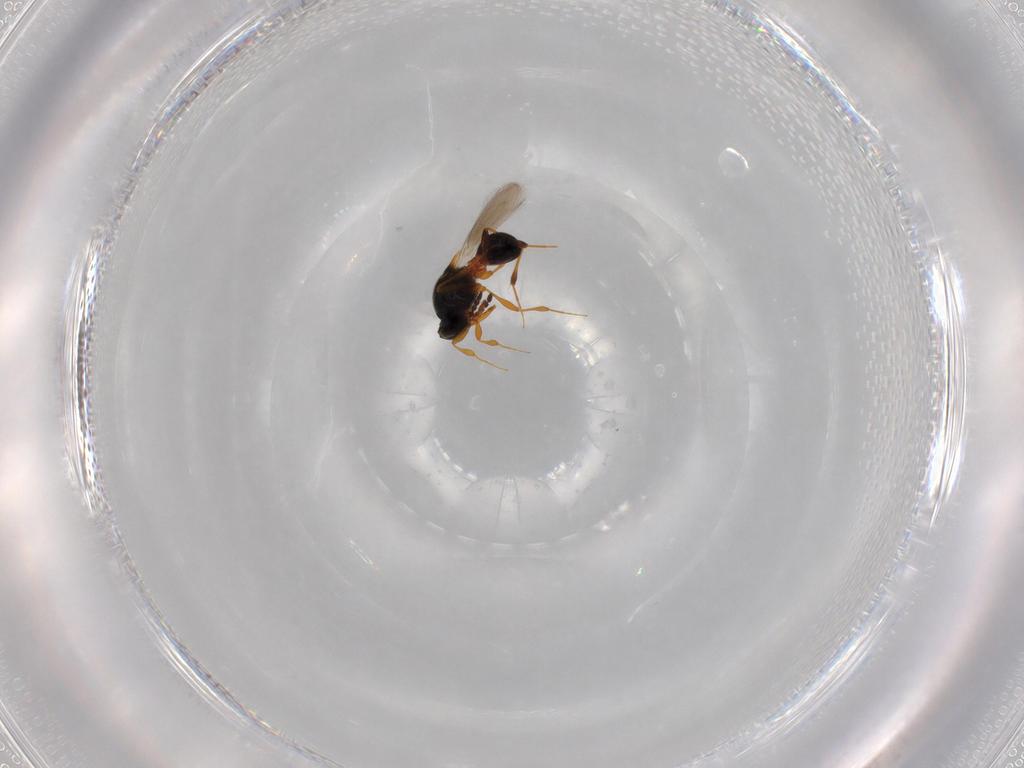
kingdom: Animalia
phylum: Arthropoda
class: Insecta
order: Hymenoptera
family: Platygastridae
